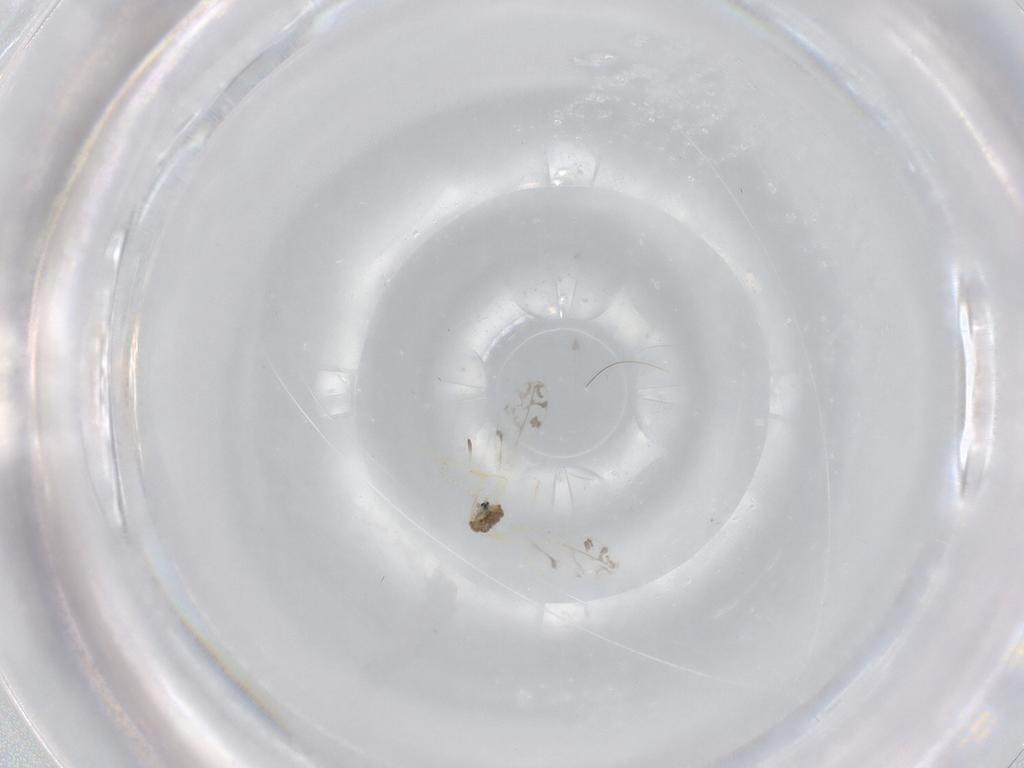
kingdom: Animalia
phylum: Arthropoda
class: Insecta
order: Diptera
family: Cecidomyiidae
